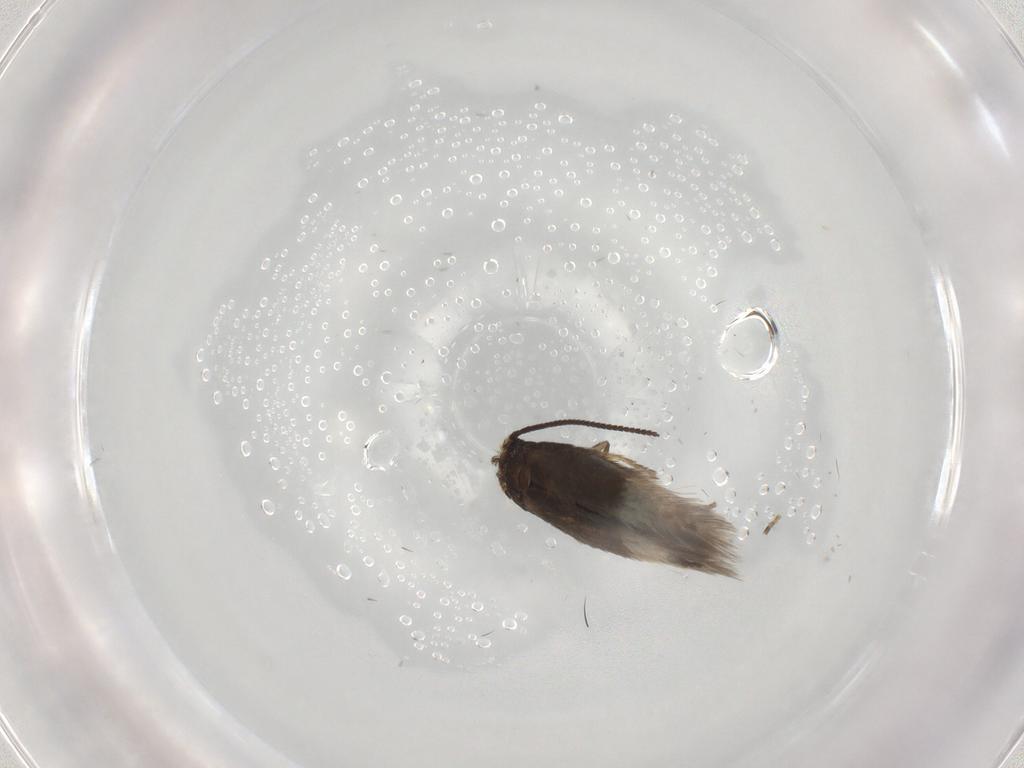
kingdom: Animalia
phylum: Arthropoda
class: Insecta
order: Lepidoptera
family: Nepticulidae
